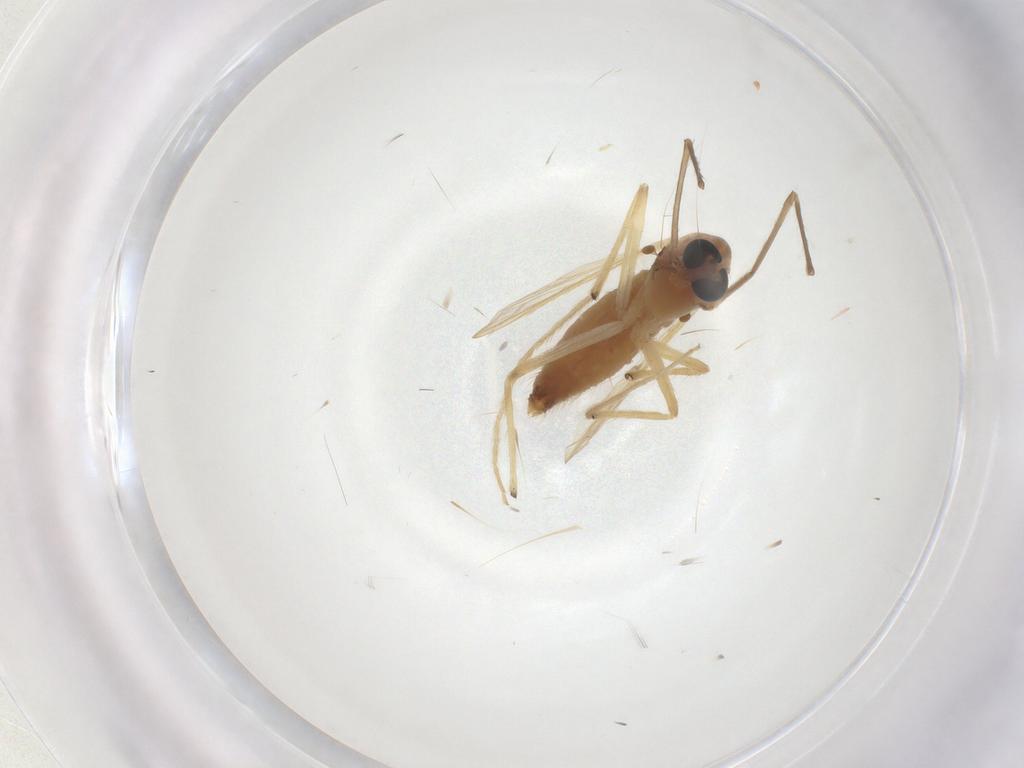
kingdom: Animalia
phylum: Arthropoda
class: Insecta
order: Diptera
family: Chironomidae
